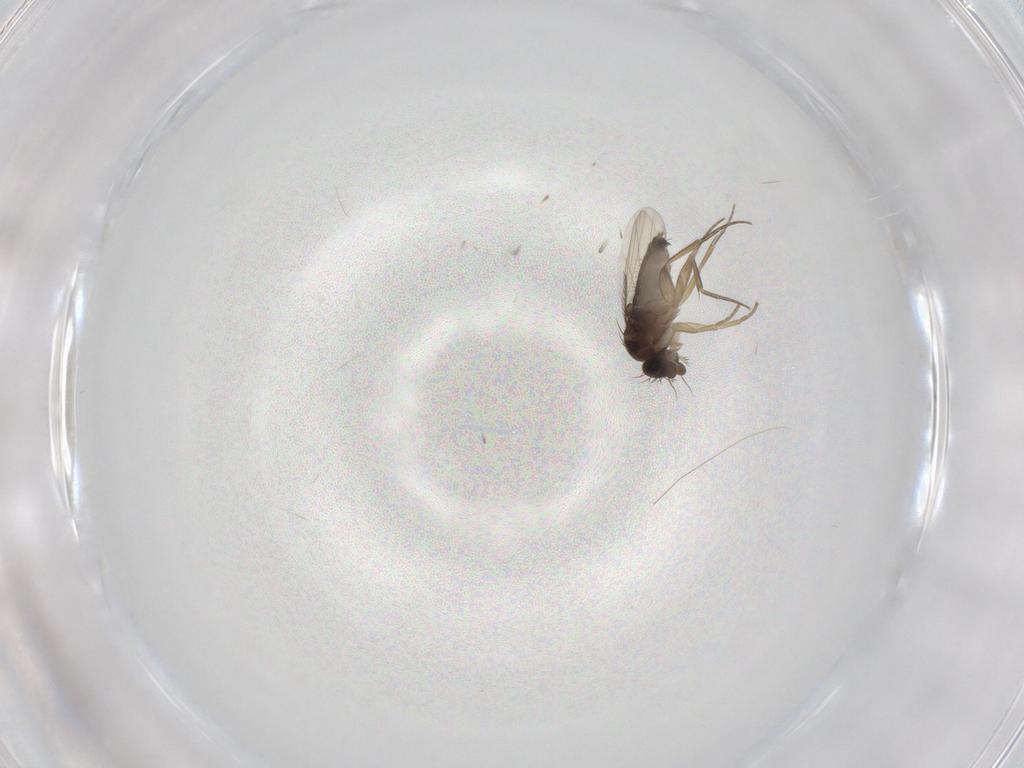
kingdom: Animalia
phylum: Arthropoda
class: Insecta
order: Diptera
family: Phoridae
